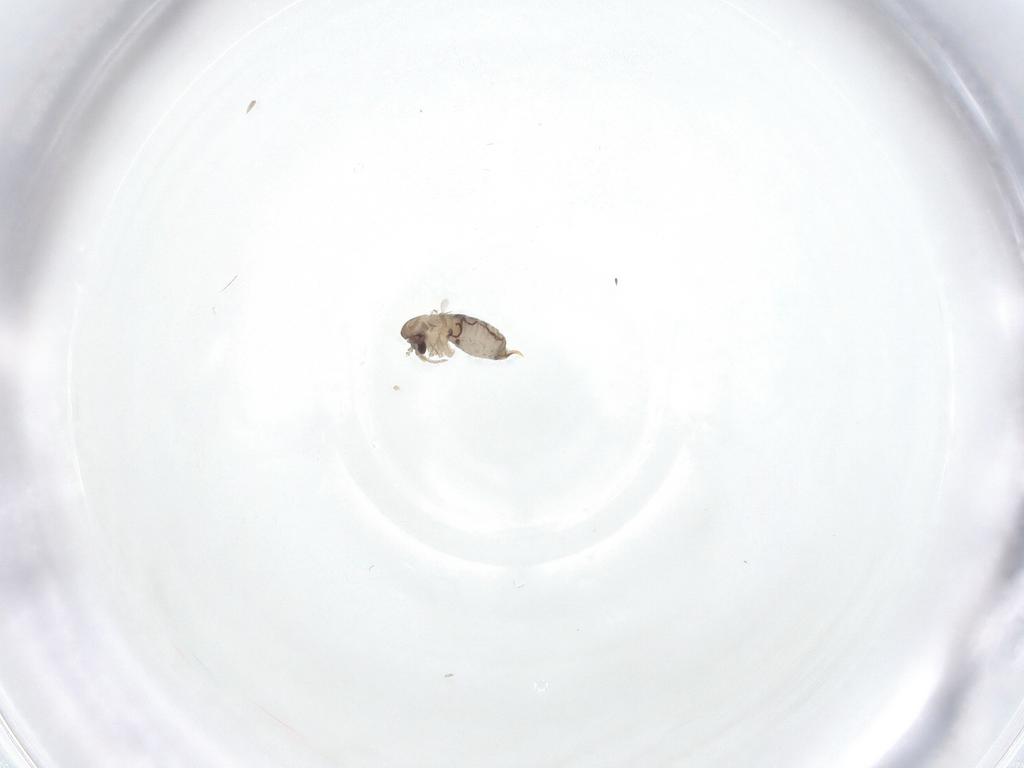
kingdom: Animalia
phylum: Arthropoda
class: Insecta
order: Diptera
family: Psychodidae
